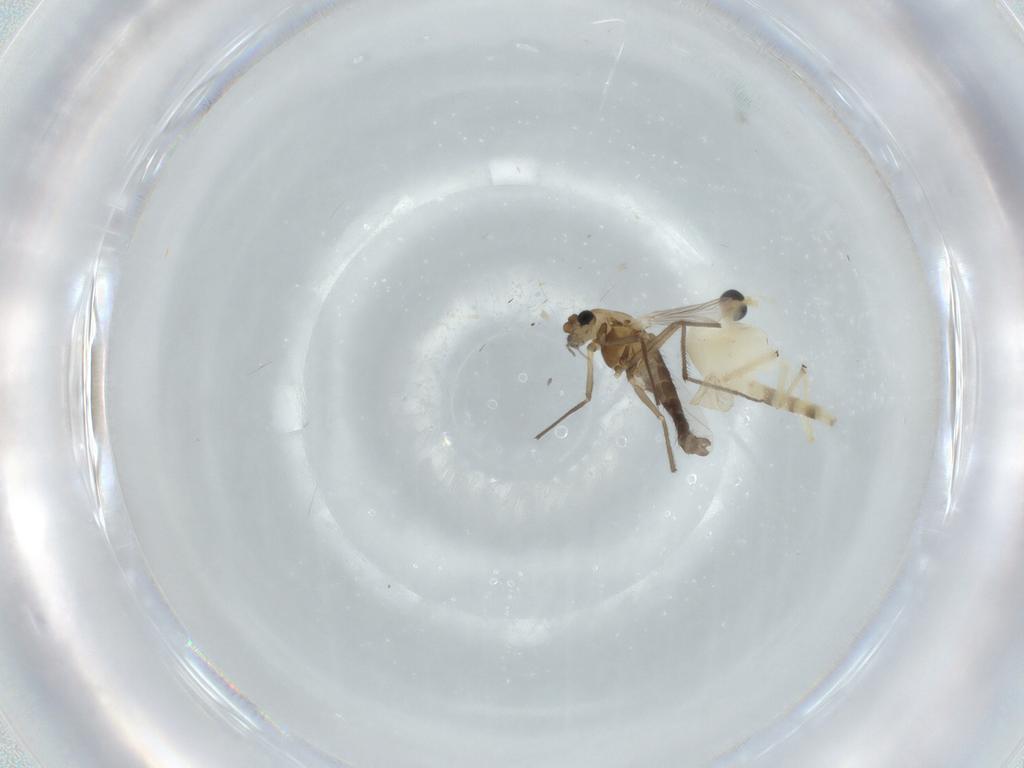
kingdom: Animalia
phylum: Arthropoda
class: Insecta
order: Diptera
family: Chironomidae
